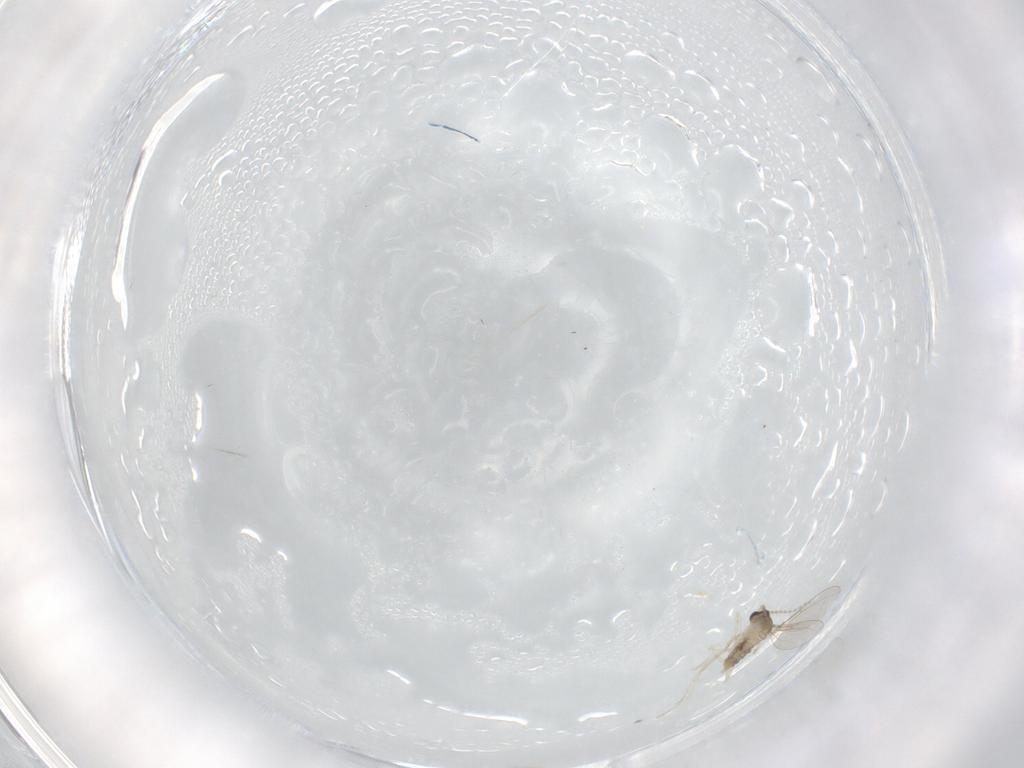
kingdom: Animalia
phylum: Arthropoda
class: Insecta
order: Diptera
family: Cecidomyiidae
